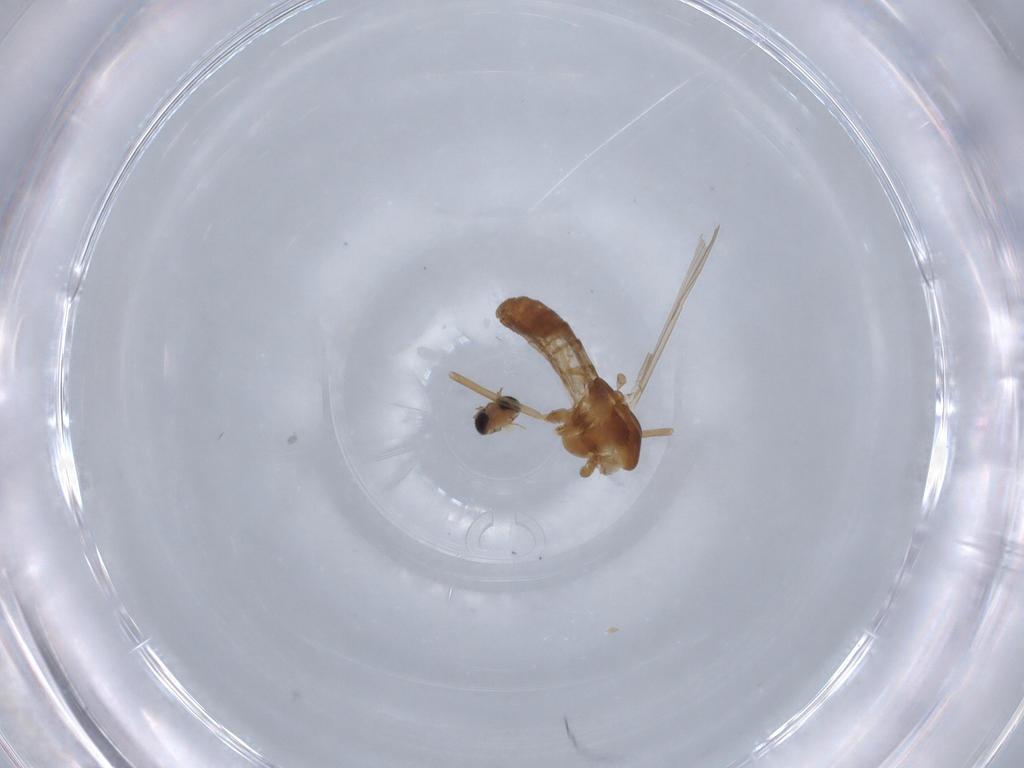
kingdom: Animalia
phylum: Arthropoda
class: Insecta
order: Diptera
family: Chironomidae
